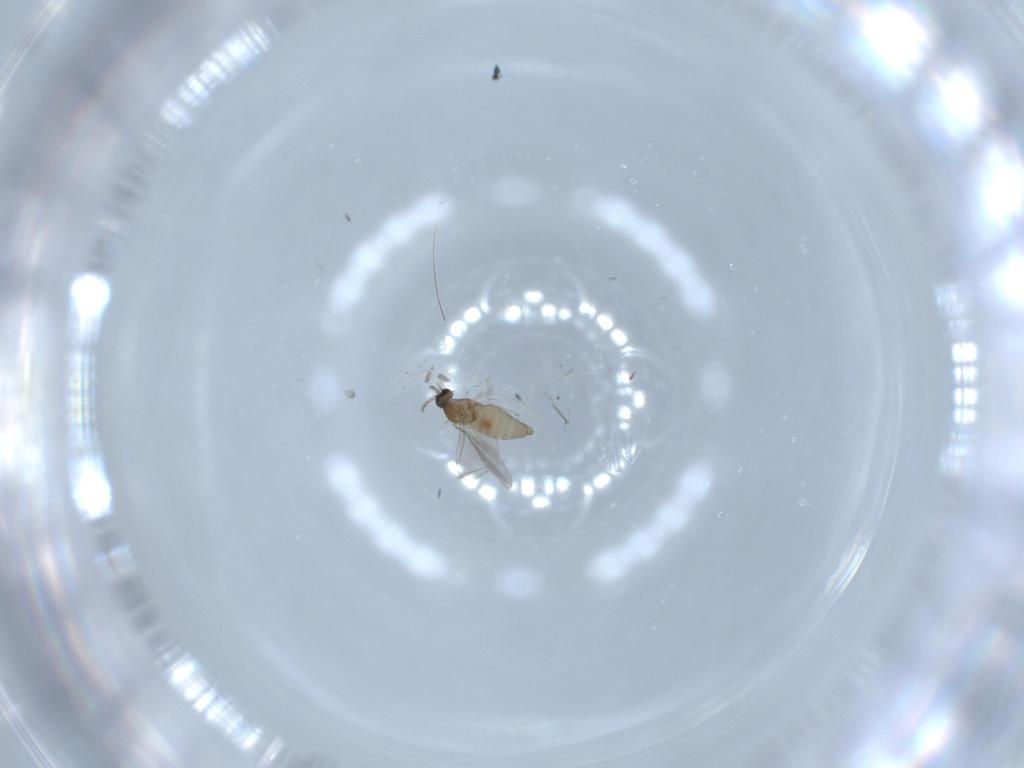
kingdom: Animalia
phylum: Arthropoda
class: Insecta
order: Diptera
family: Cecidomyiidae
